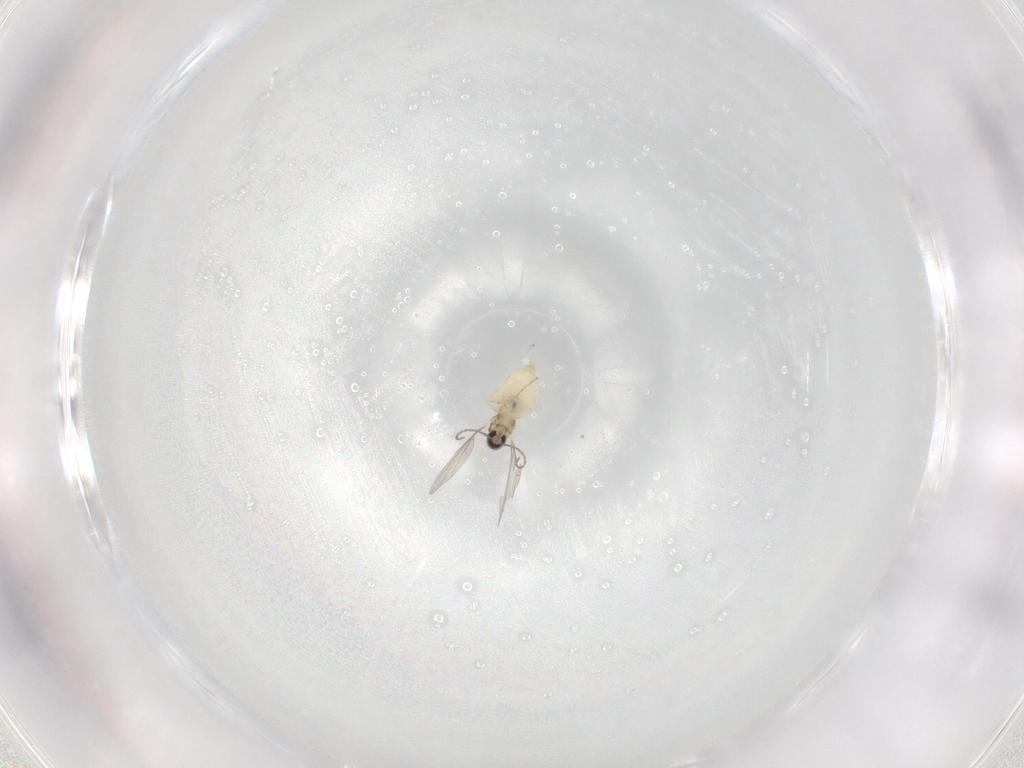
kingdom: Animalia
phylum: Arthropoda
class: Insecta
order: Diptera
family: Cecidomyiidae
